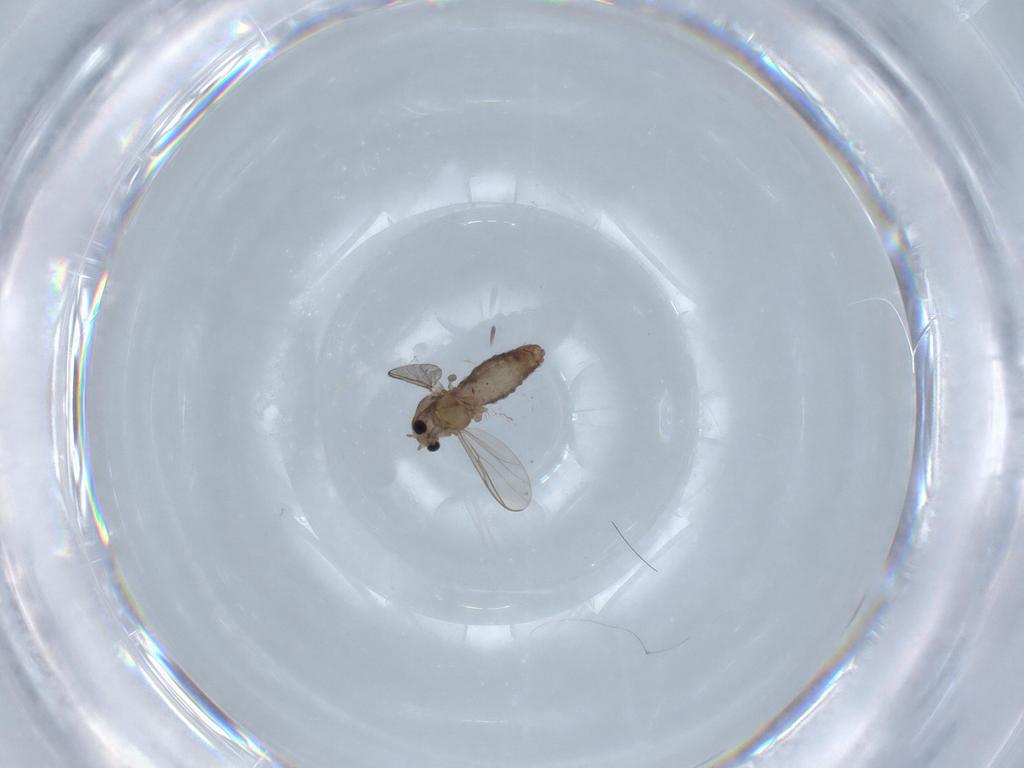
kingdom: Animalia
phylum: Arthropoda
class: Insecta
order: Diptera
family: Chironomidae
